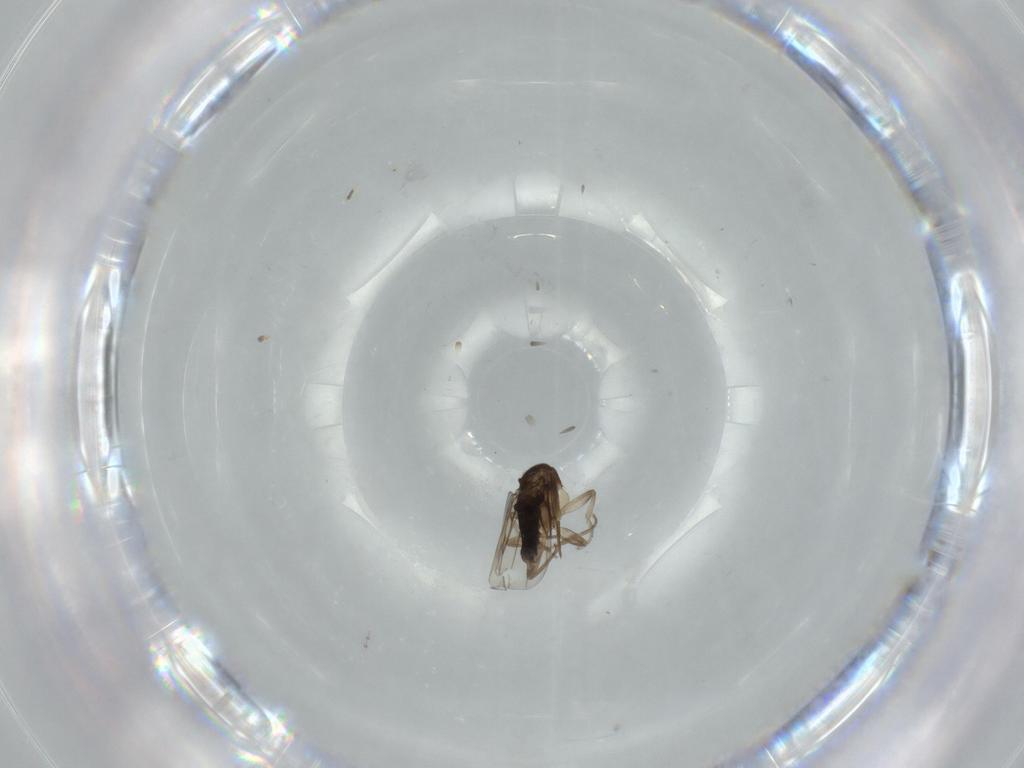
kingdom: Animalia
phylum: Arthropoda
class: Insecta
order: Diptera
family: Phoridae
